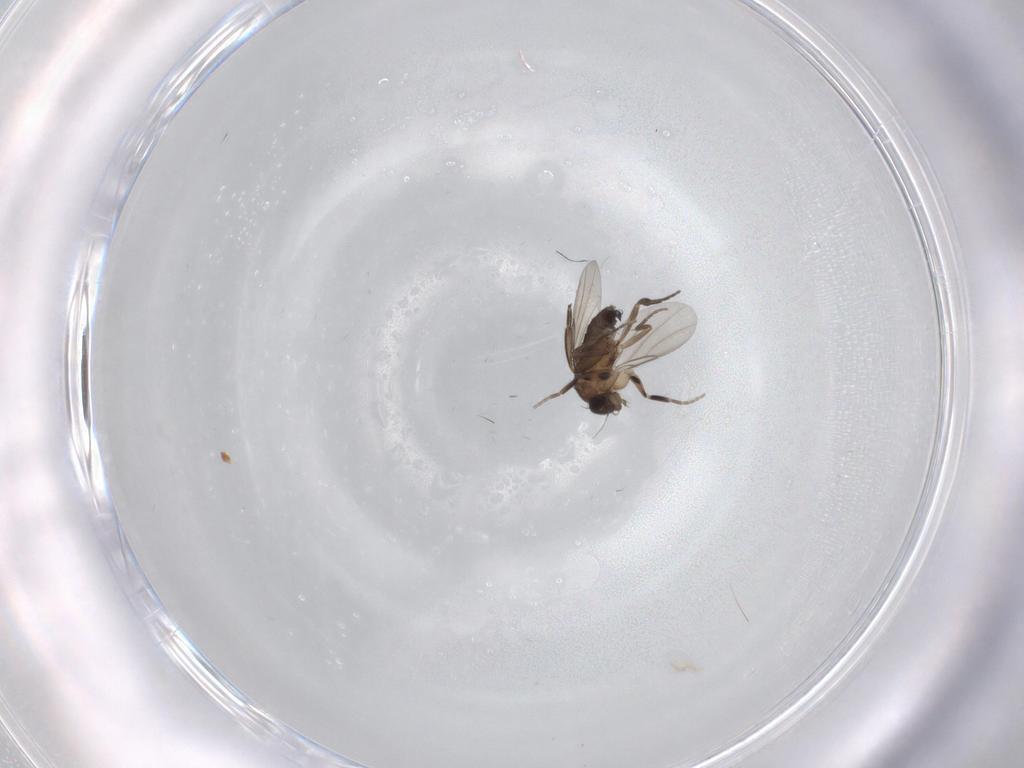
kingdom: Animalia
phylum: Arthropoda
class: Insecta
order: Diptera
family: Phoridae
